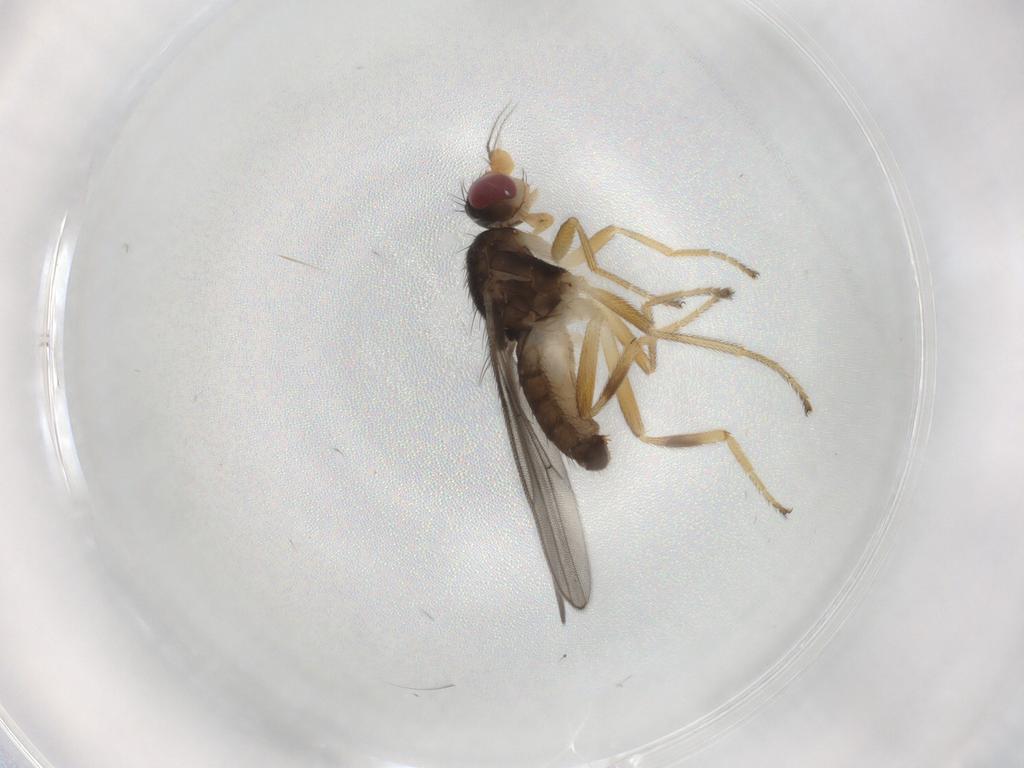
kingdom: Animalia
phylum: Arthropoda
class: Insecta
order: Diptera
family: Chloropidae
